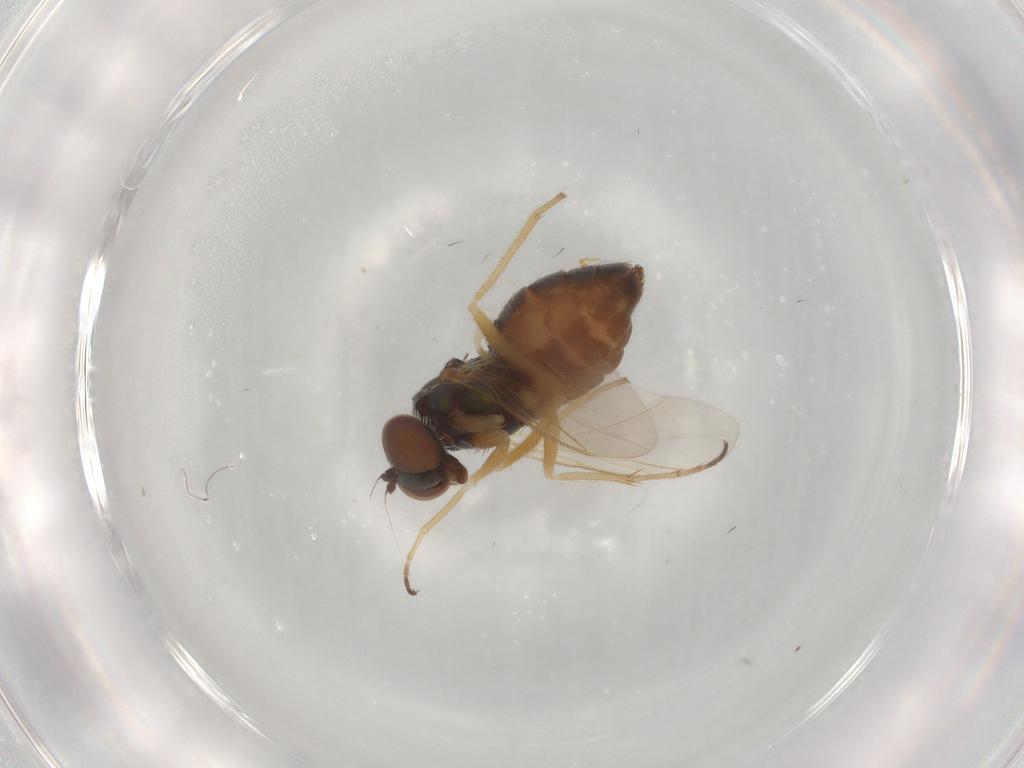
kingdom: Animalia
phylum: Arthropoda
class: Insecta
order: Diptera
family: Dolichopodidae
